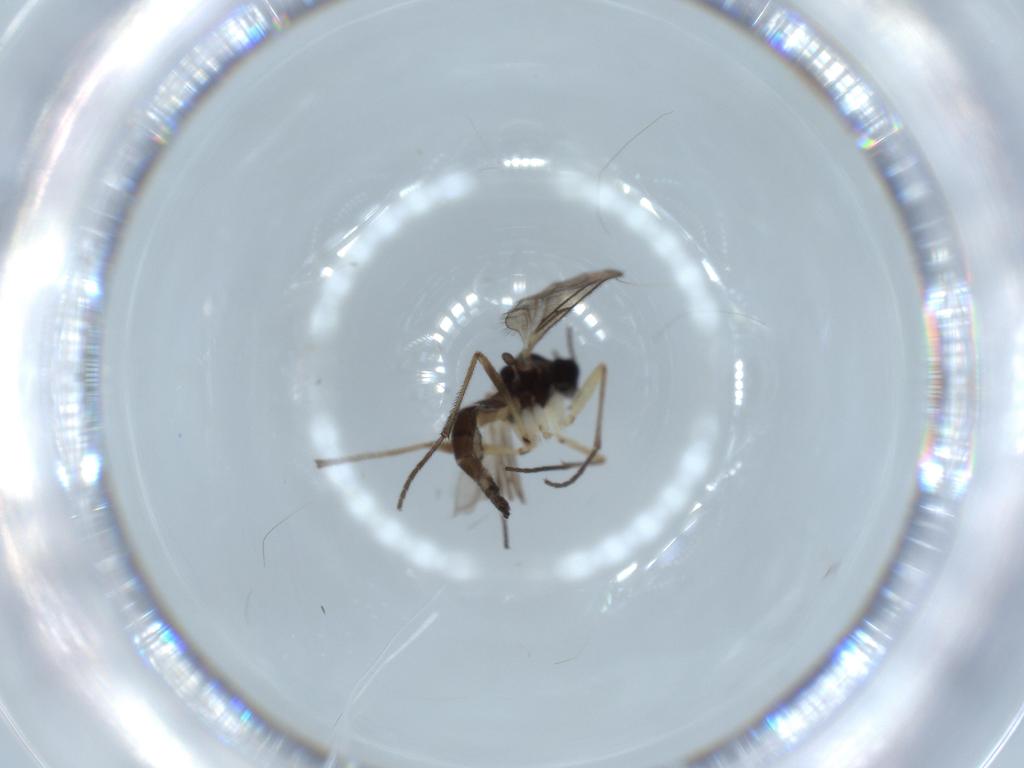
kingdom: Animalia
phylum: Arthropoda
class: Insecta
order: Diptera
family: Sciaridae
